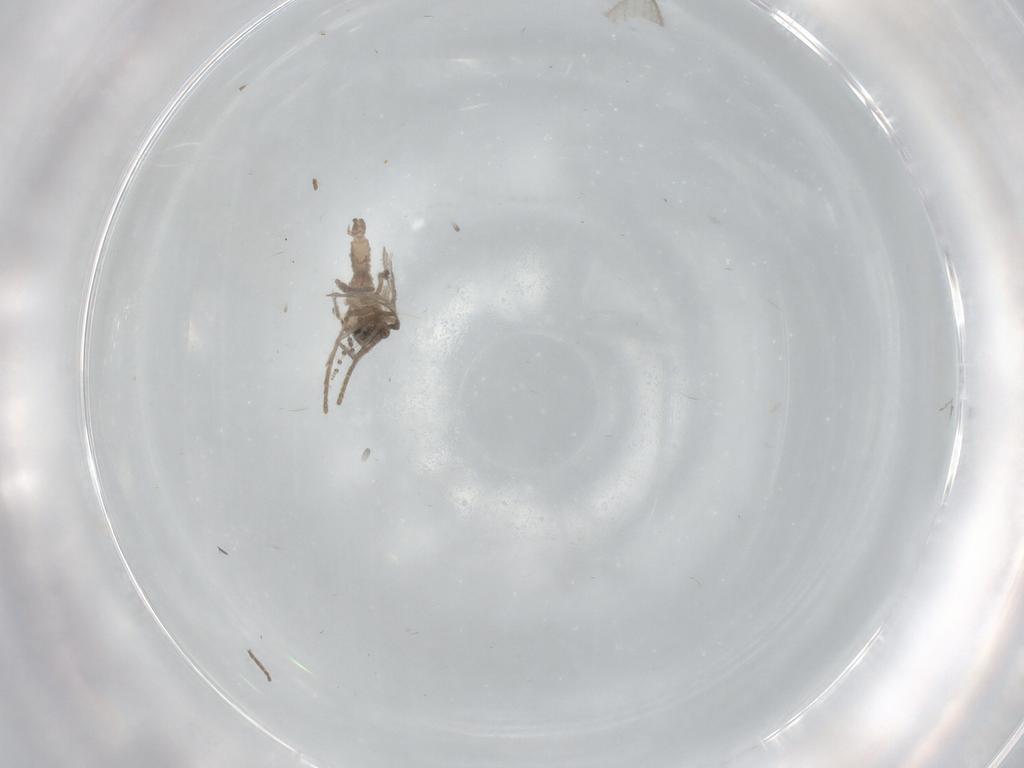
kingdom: Animalia
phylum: Arthropoda
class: Insecta
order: Diptera
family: Psychodidae
